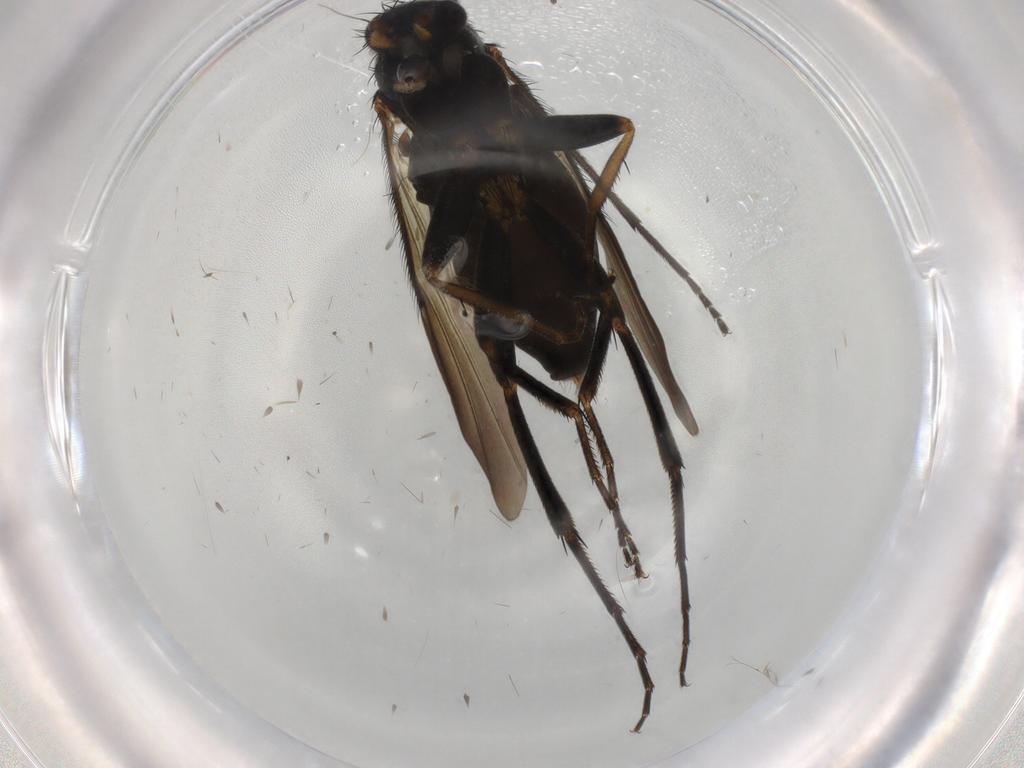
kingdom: Animalia
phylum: Arthropoda
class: Insecta
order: Diptera
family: Phoridae
